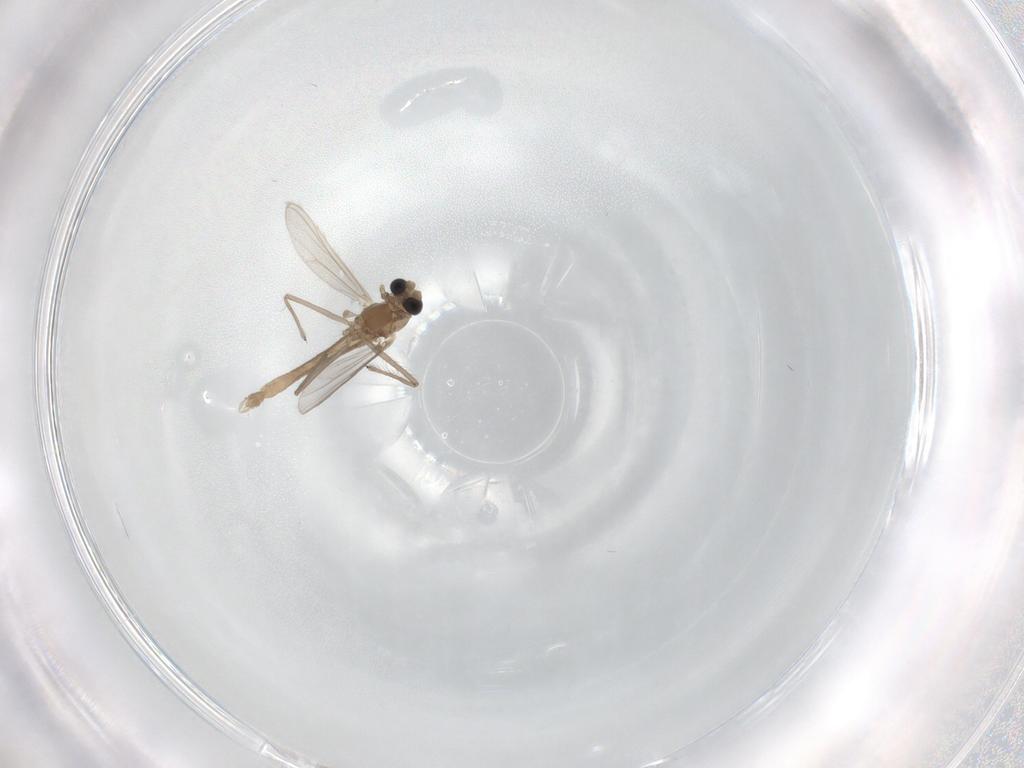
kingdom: Animalia
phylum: Arthropoda
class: Insecta
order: Diptera
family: Chironomidae
